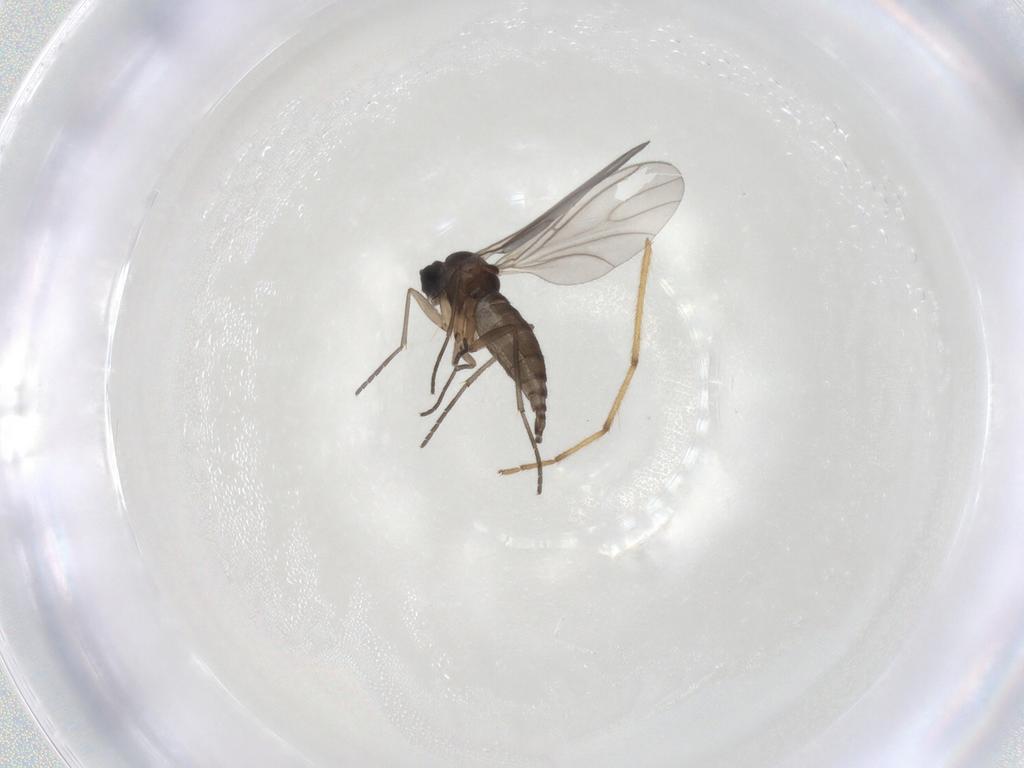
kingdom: Animalia
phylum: Arthropoda
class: Insecta
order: Diptera
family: Sciaridae
